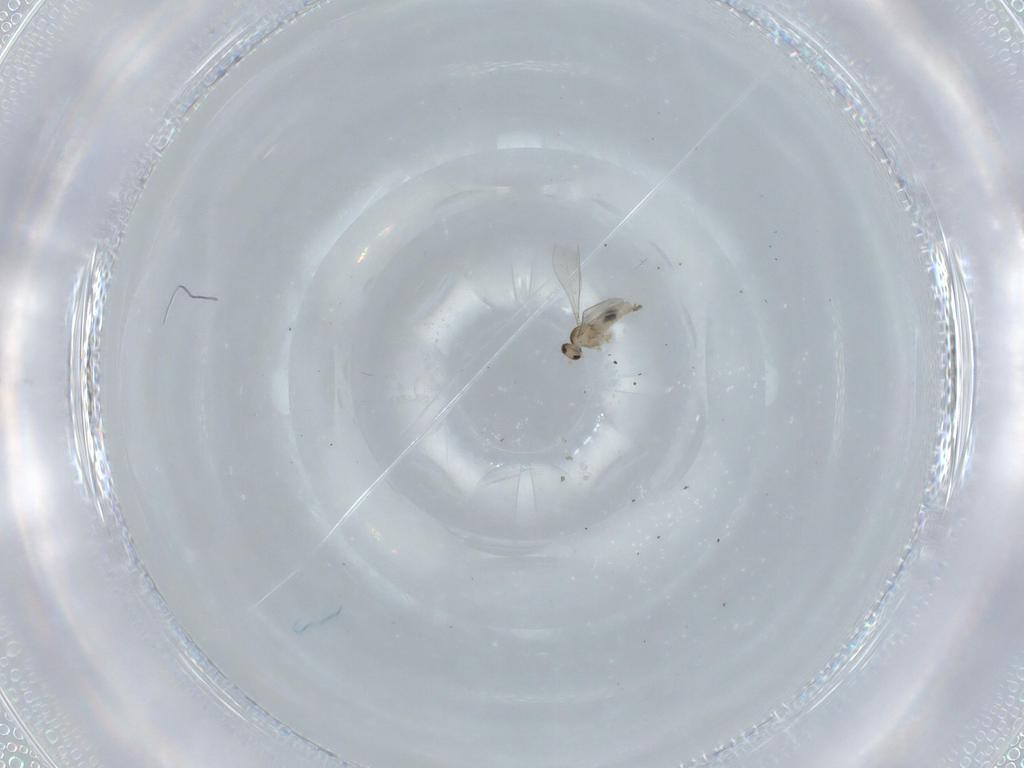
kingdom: Animalia
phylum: Arthropoda
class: Insecta
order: Diptera
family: Cecidomyiidae
